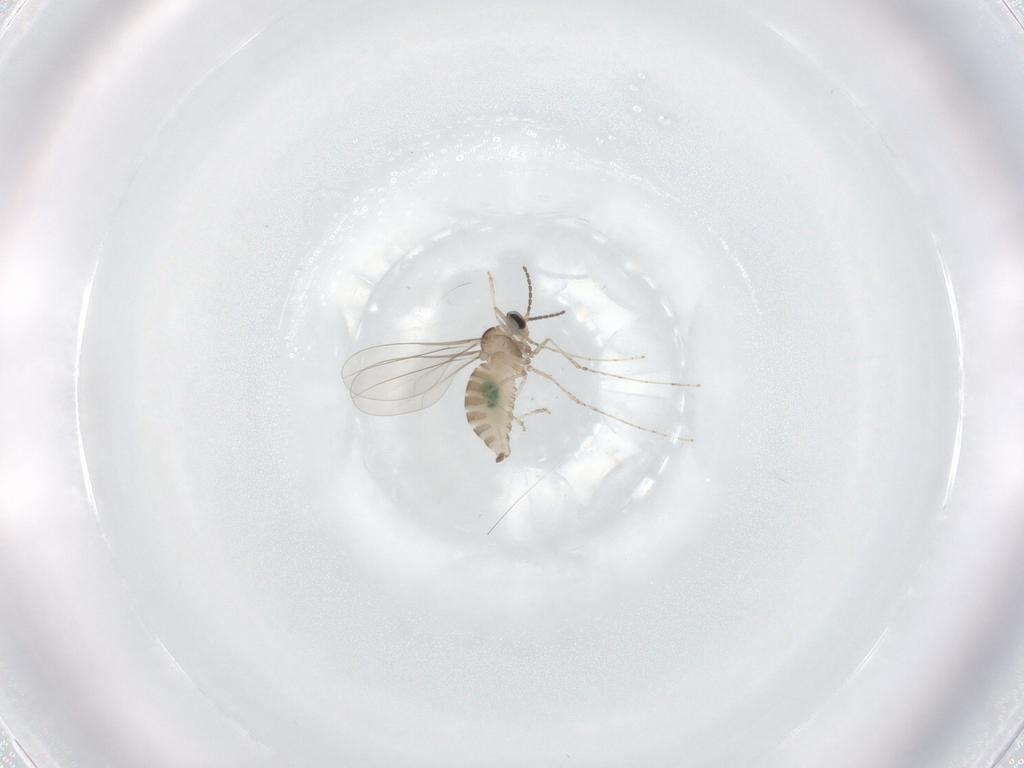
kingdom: Animalia
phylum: Arthropoda
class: Insecta
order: Diptera
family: Cecidomyiidae
